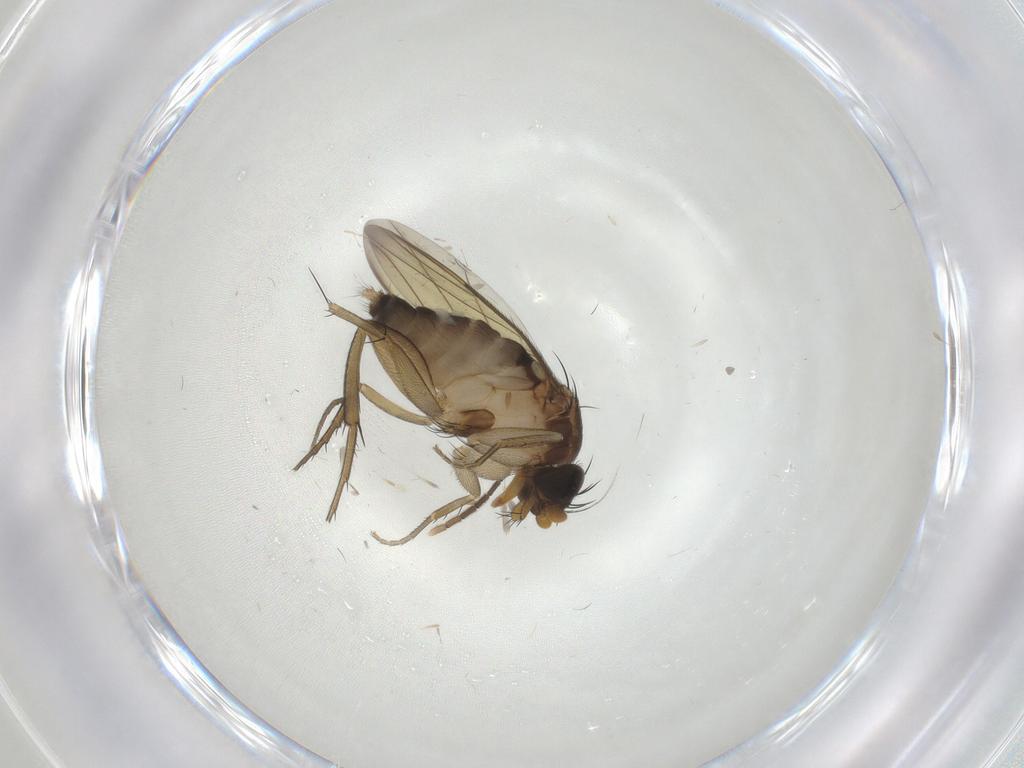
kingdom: Animalia
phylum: Arthropoda
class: Insecta
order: Diptera
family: Sciaridae
